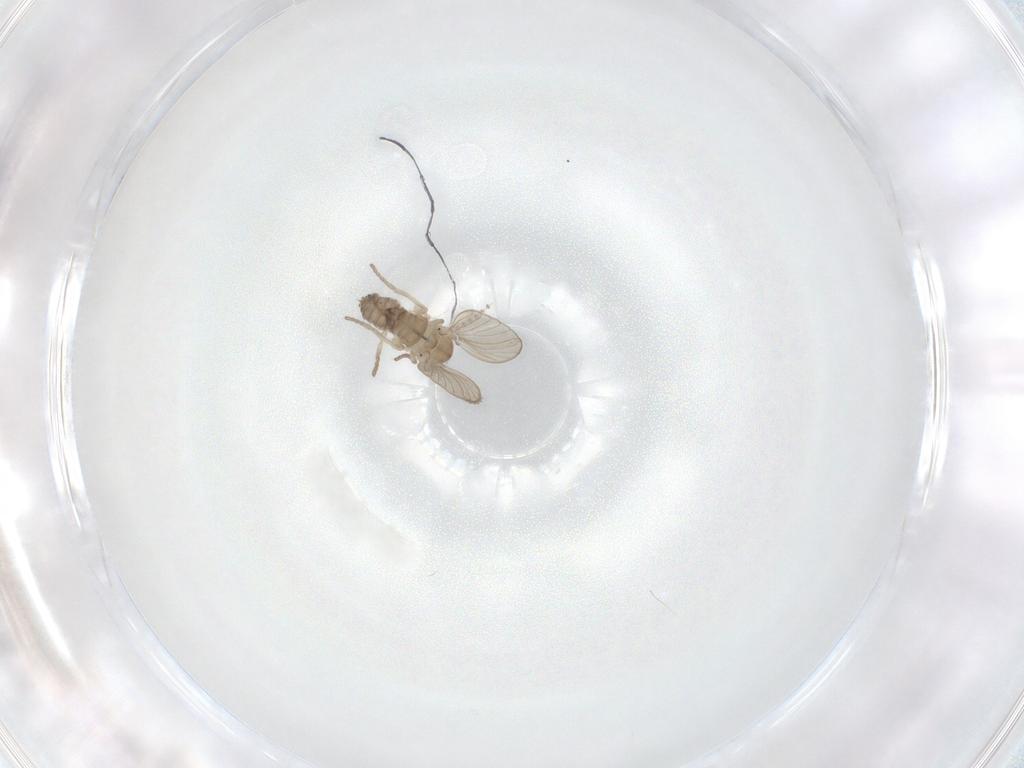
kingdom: Animalia
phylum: Arthropoda
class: Insecta
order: Diptera
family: Psychodidae
